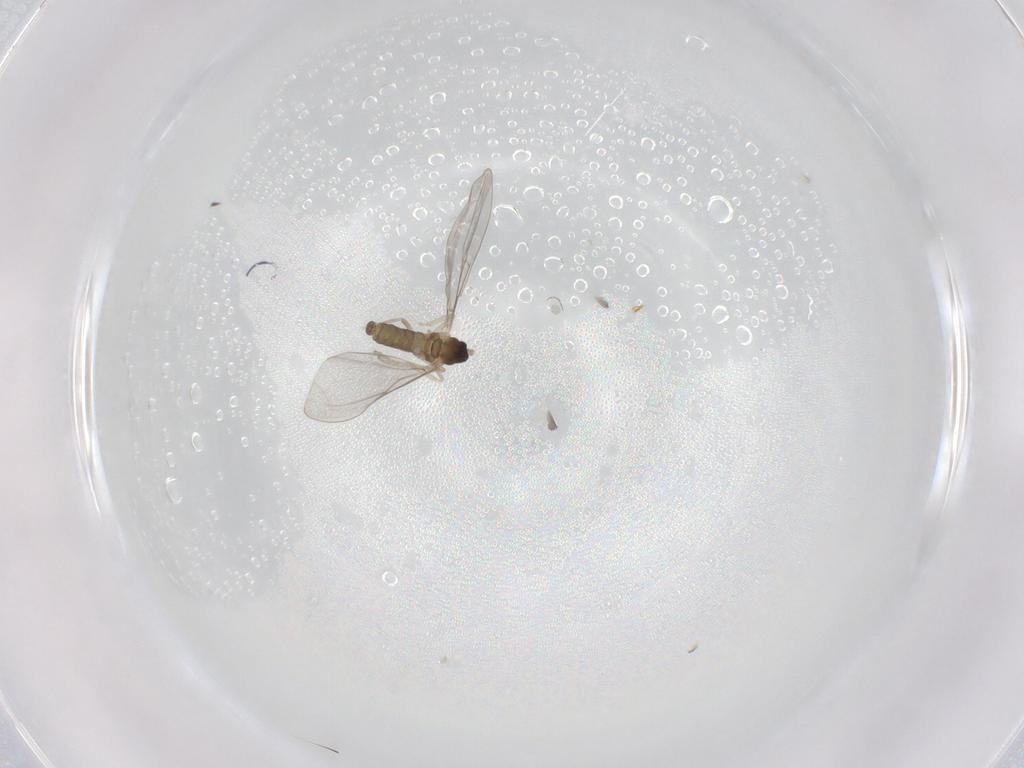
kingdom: Animalia
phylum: Arthropoda
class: Insecta
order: Diptera
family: Cecidomyiidae
